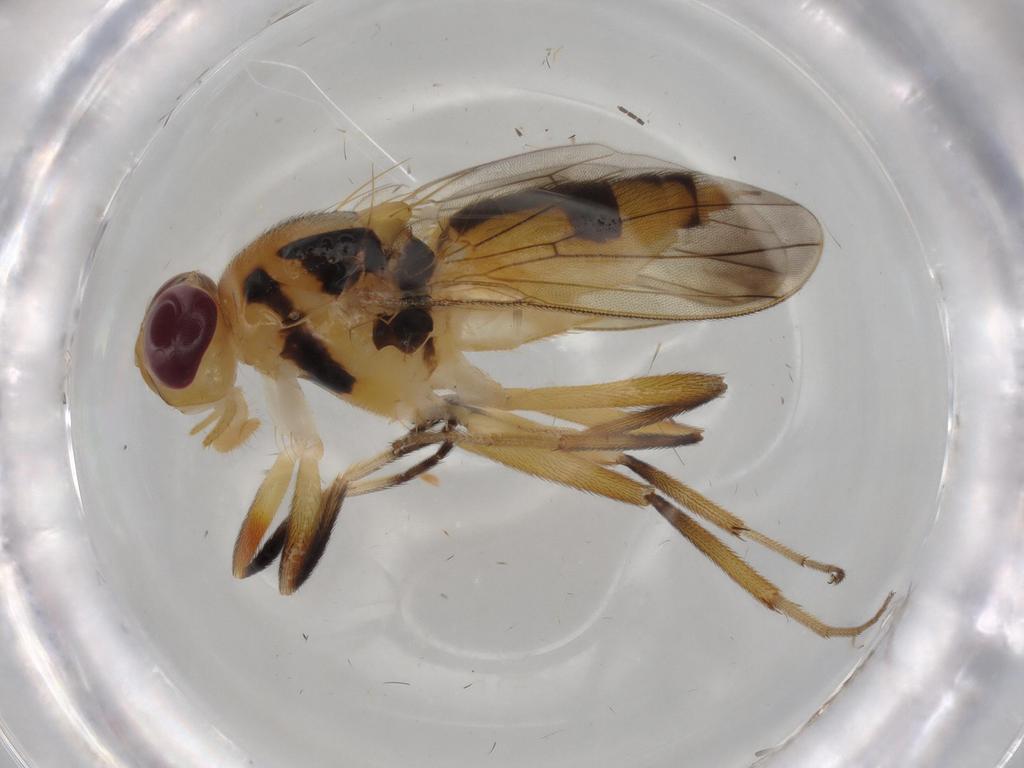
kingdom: Animalia
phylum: Arthropoda
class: Insecta
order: Diptera
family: Clusiidae
